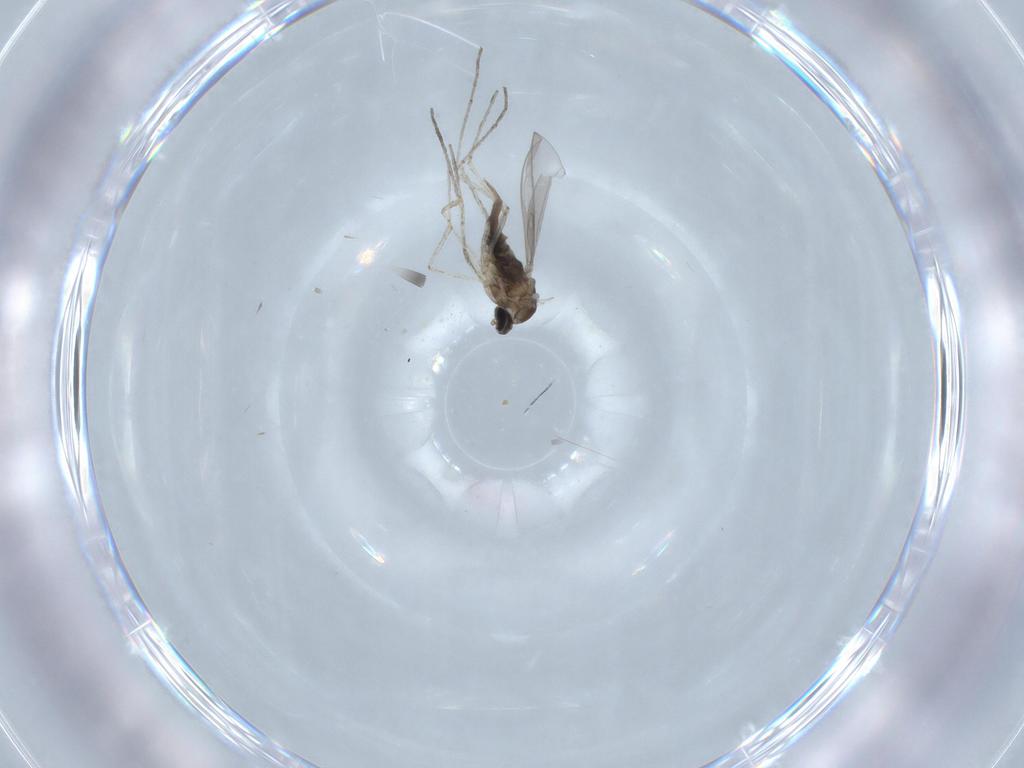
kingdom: Animalia
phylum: Arthropoda
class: Insecta
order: Diptera
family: Cecidomyiidae
